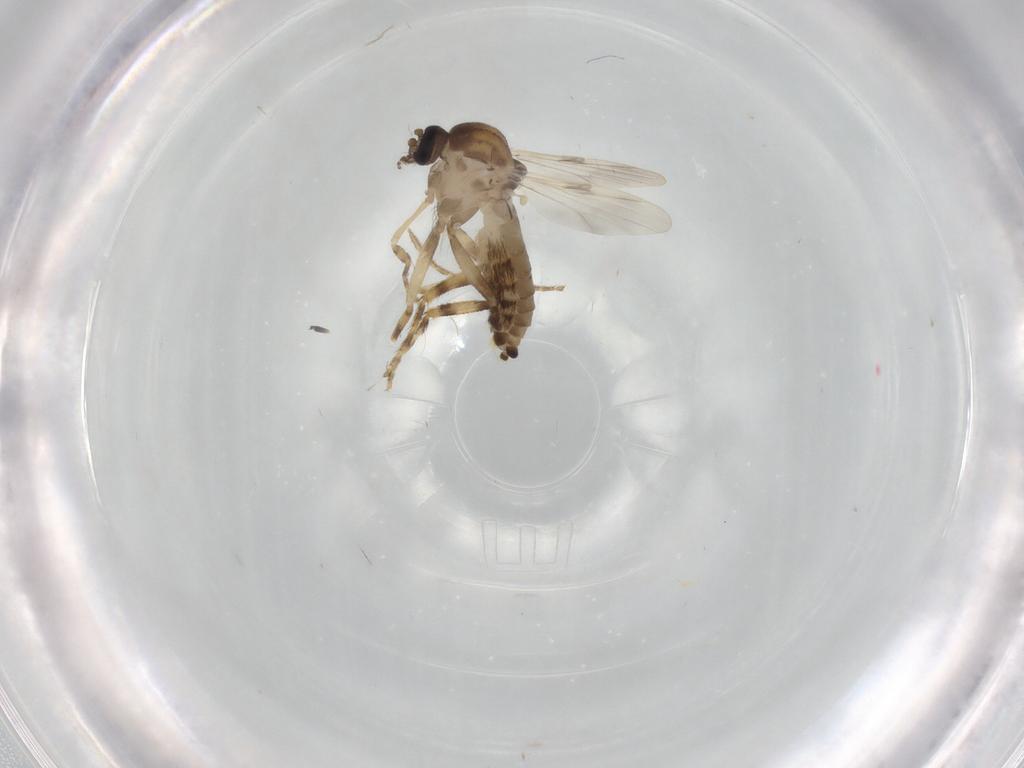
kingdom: Animalia
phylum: Arthropoda
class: Insecta
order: Diptera
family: Ceratopogonidae
